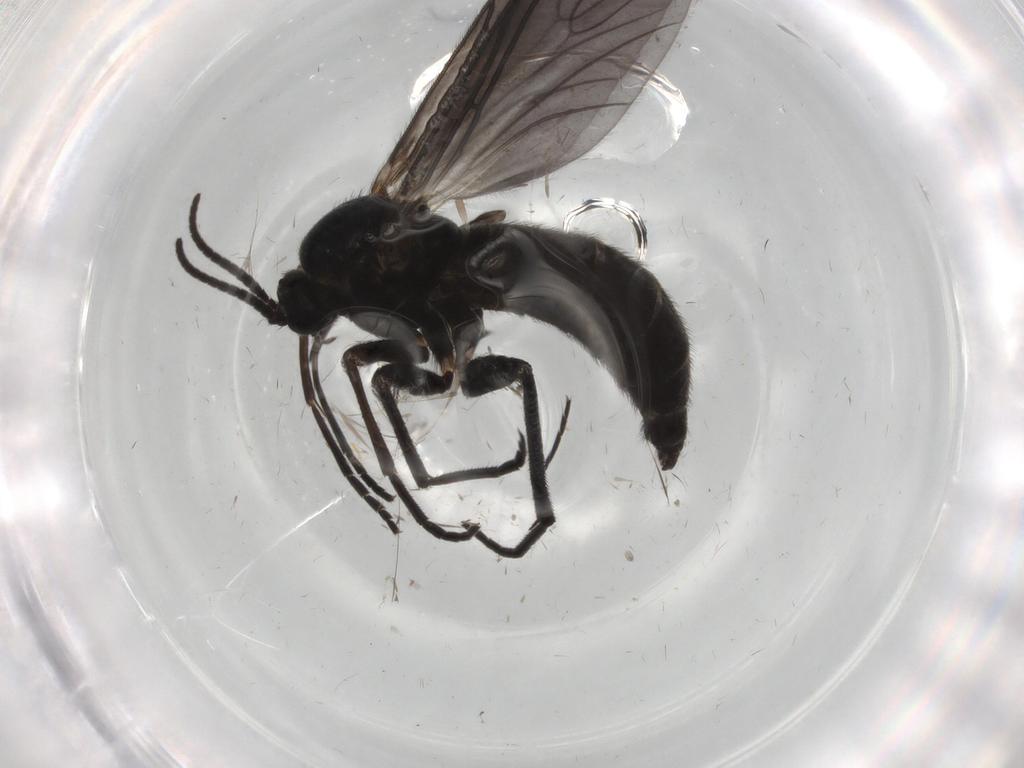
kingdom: Animalia
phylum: Arthropoda
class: Insecta
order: Diptera
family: Sciaridae
